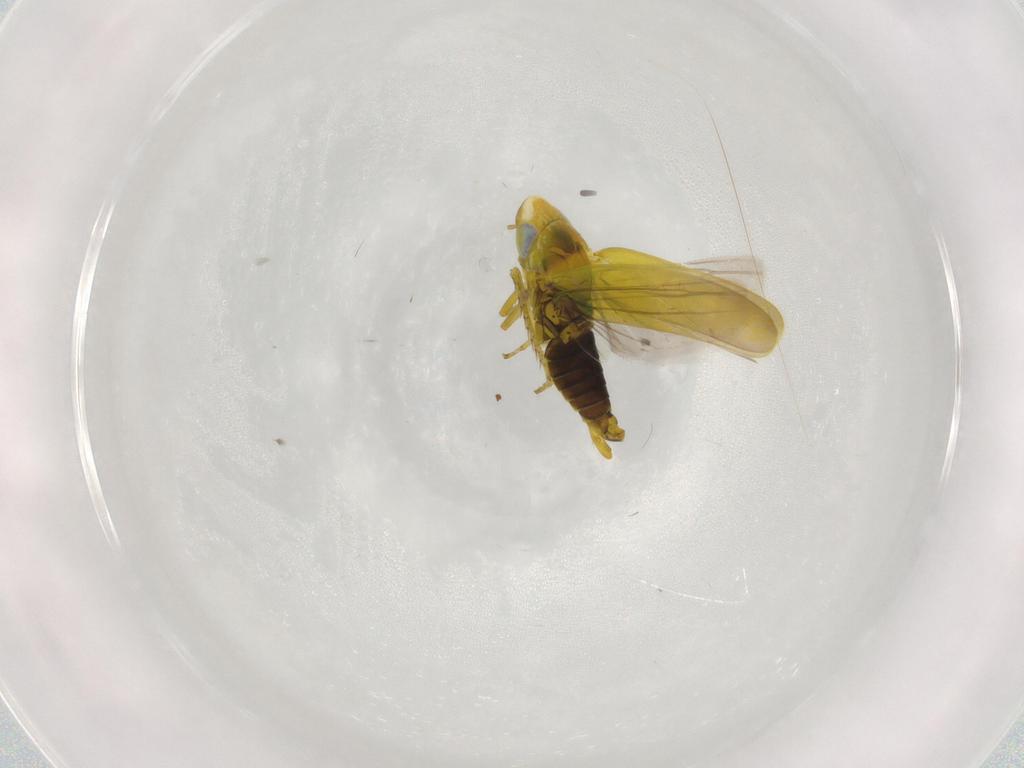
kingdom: Animalia
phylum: Arthropoda
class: Insecta
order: Hemiptera
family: Cicadellidae
